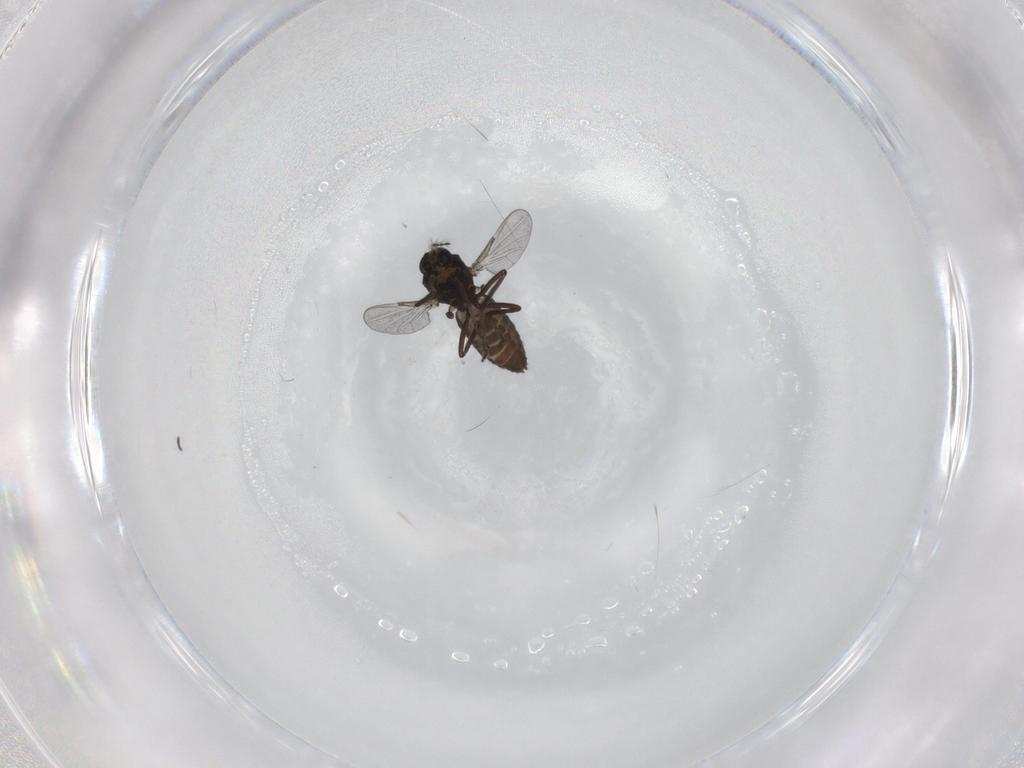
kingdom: Animalia
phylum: Arthropoda
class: Insecta
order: Diptera
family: Ceratopogonidae
